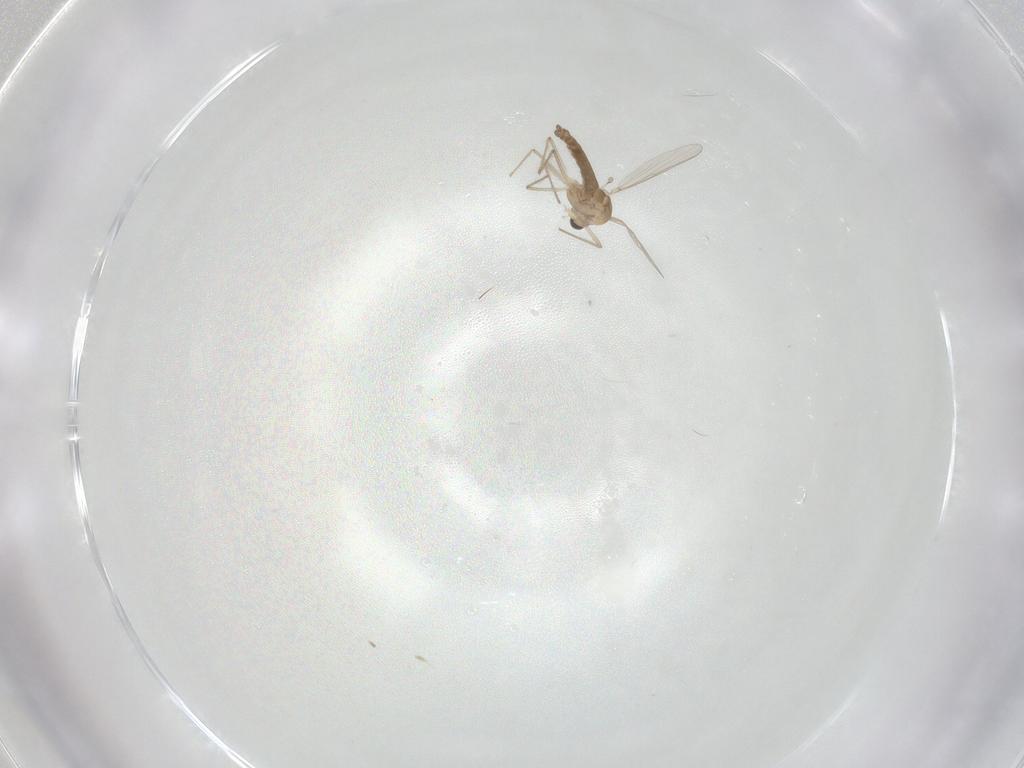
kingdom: Animalia
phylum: Arthropoda
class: Insecta
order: Diptera
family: Chironomidae
